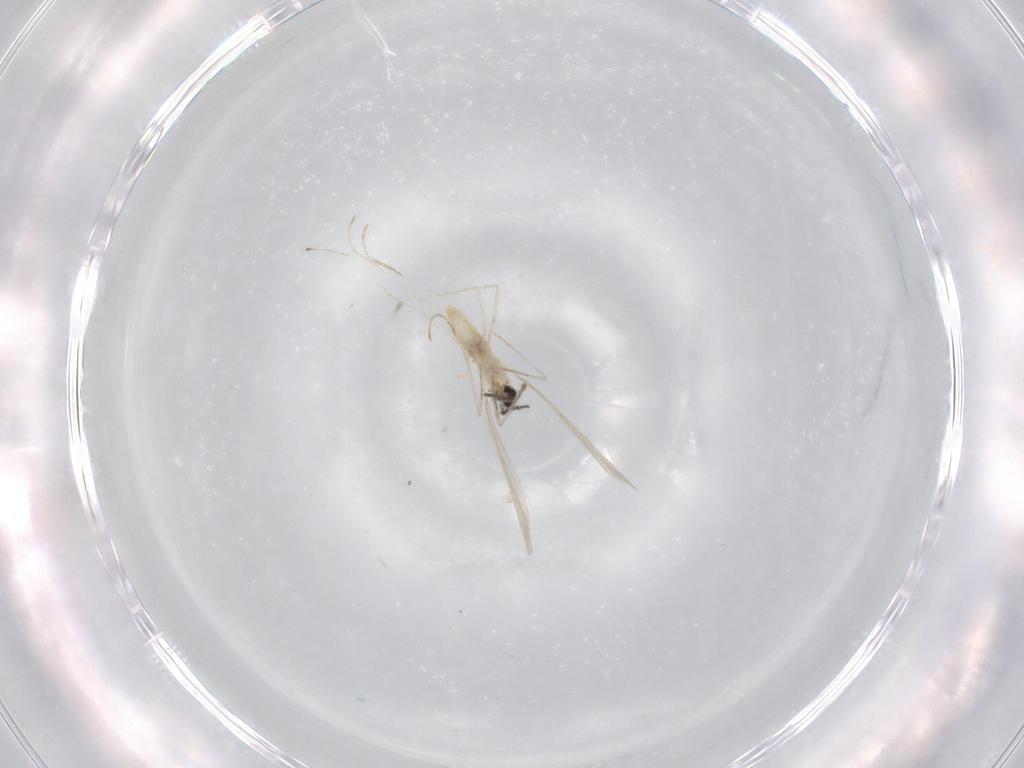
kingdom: Animalia
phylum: Arthropoda
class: Insecta
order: Diptera
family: Cecidomyiidae
